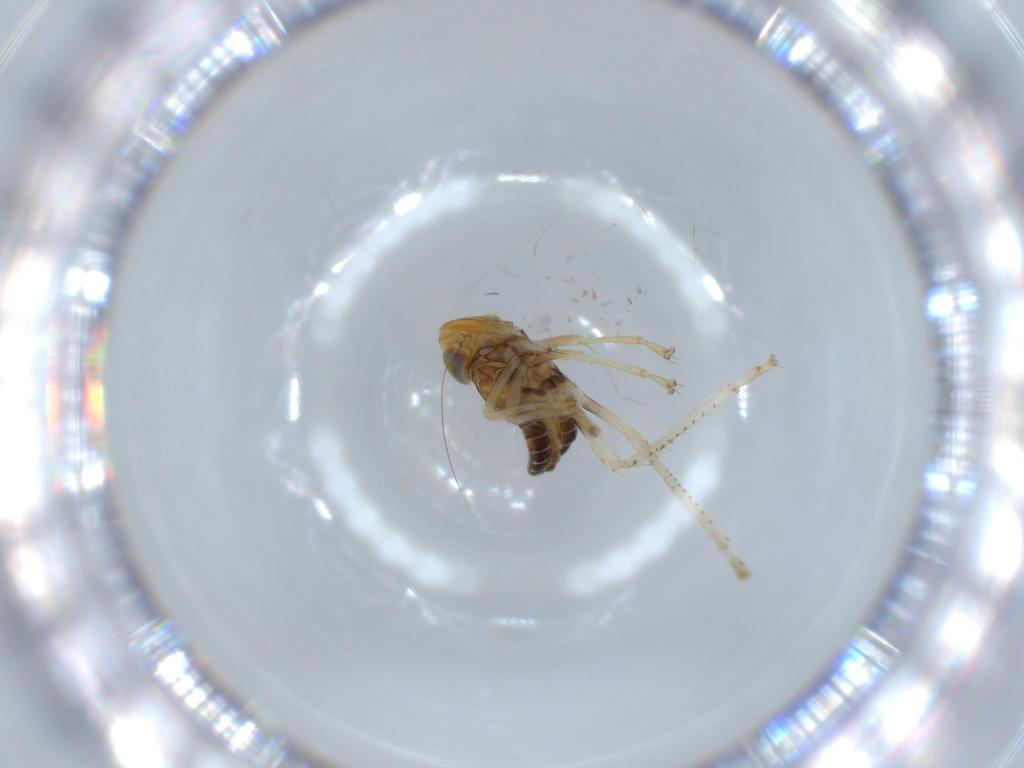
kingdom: Animalia
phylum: Arthropoda
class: Insecta
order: Hemiptera
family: Cicadellidae
